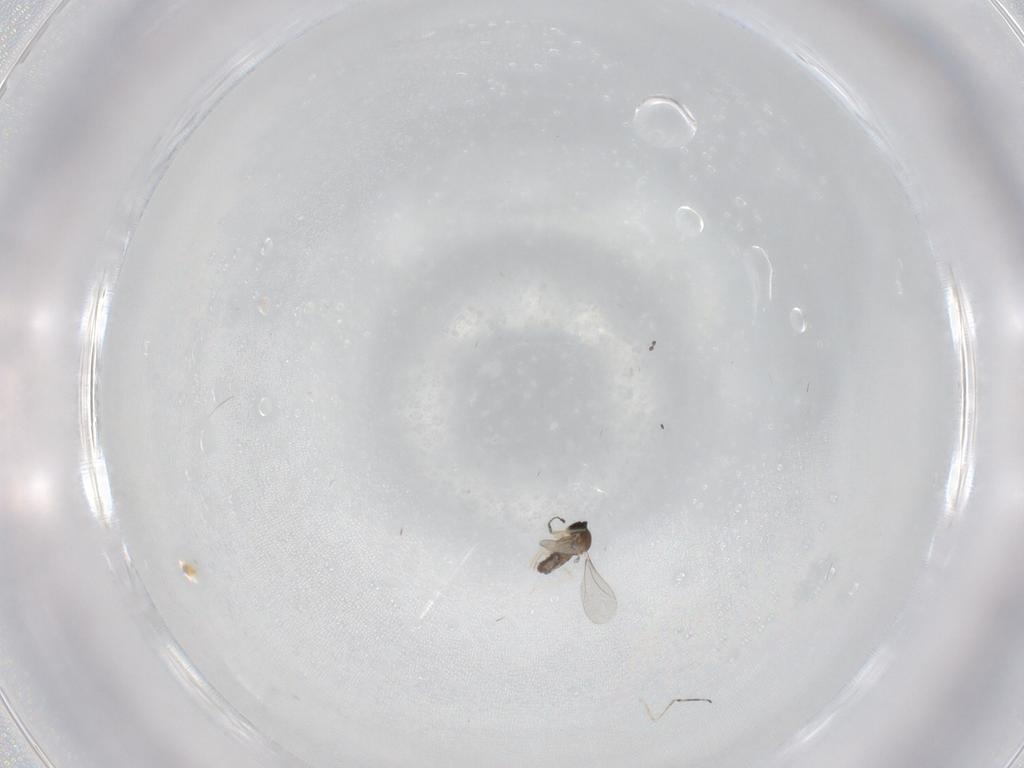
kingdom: Animalia
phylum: Arthropoda
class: Insecta
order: Diptera
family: Cecidomyiidae
